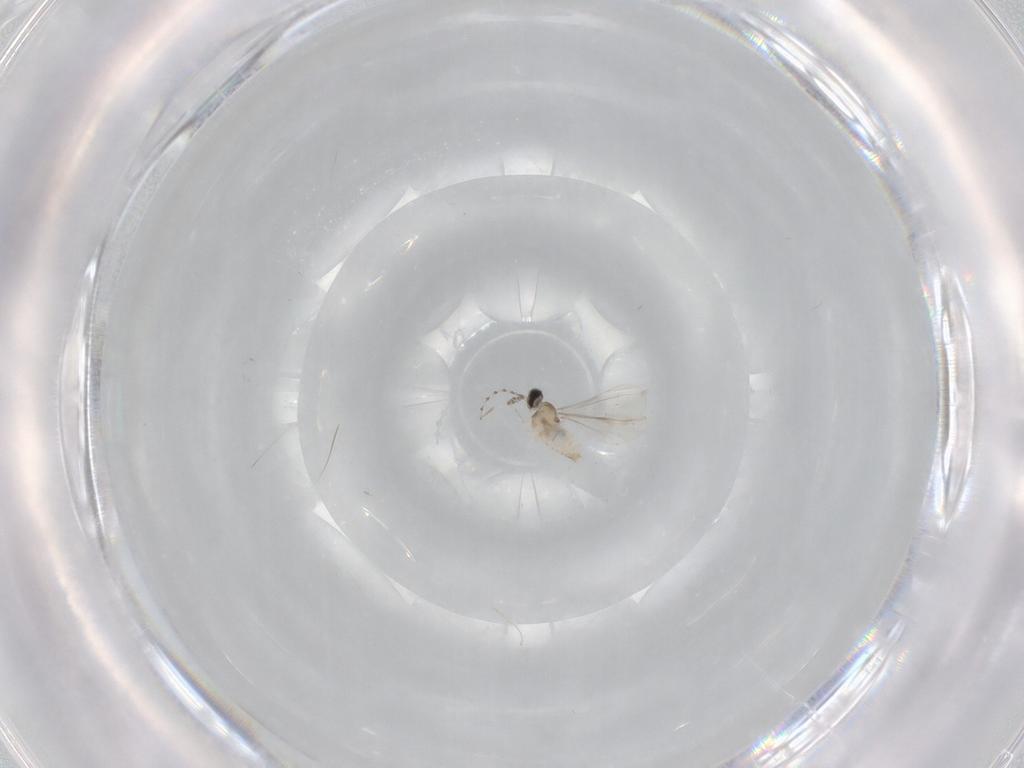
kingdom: Animalia
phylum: Arthropoda
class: Insecta
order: Diptera
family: Cecidomyiidae
